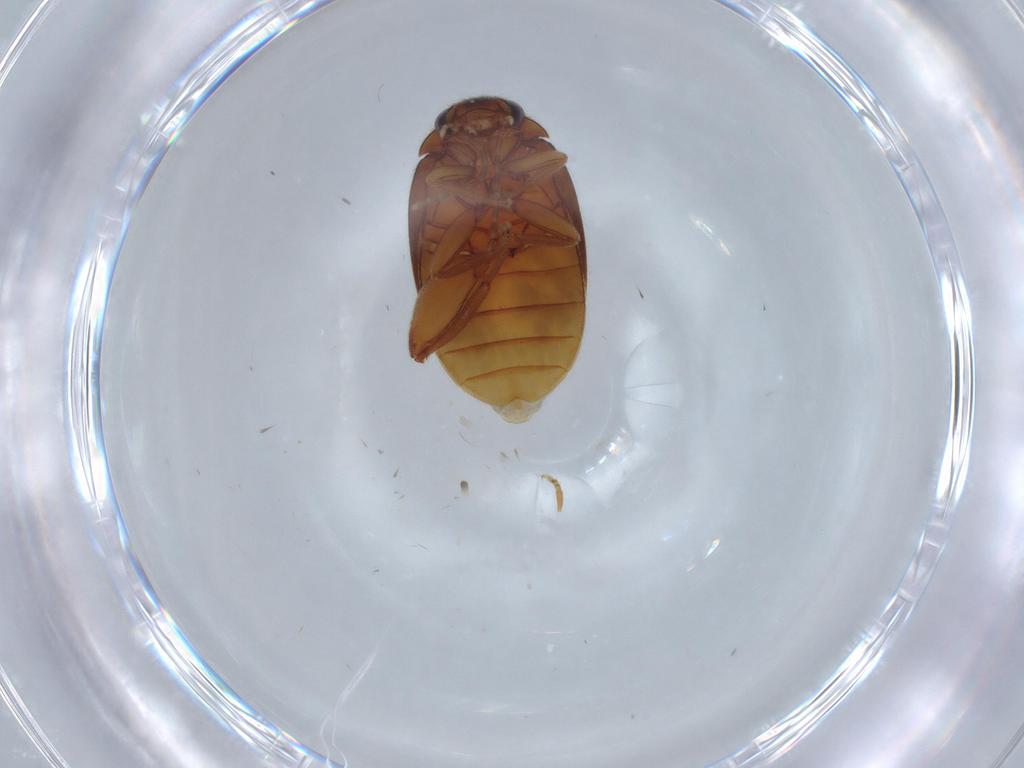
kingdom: Animalia
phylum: Arthropoda
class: Insecta
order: Coleoptera
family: Scirtidae
